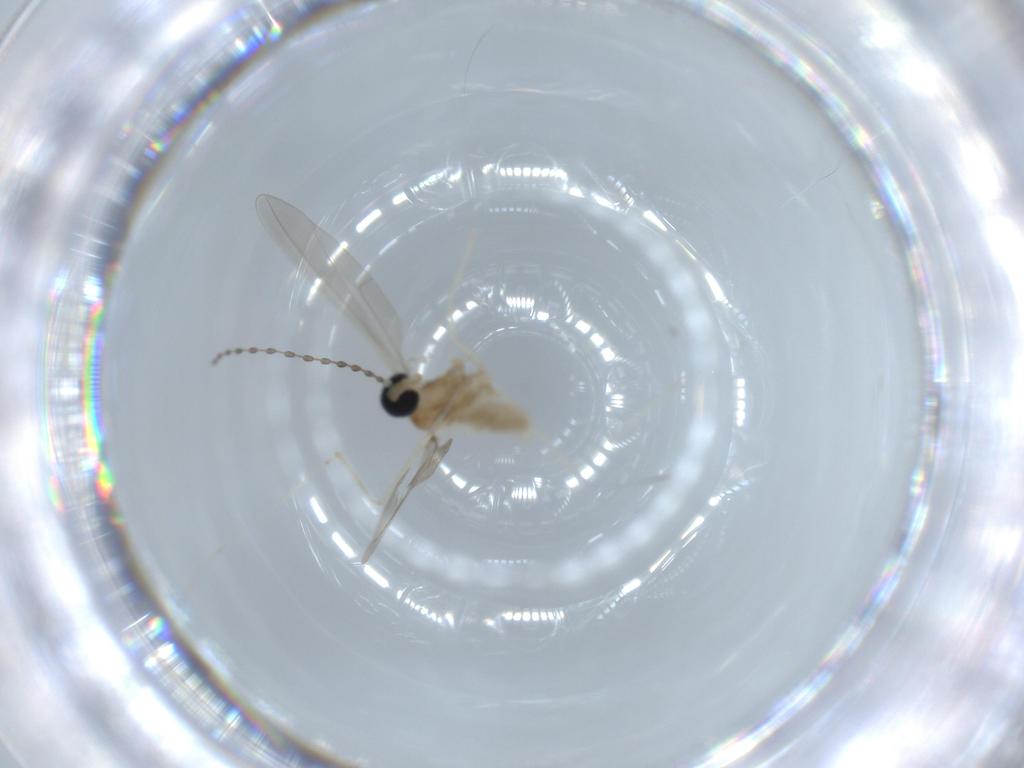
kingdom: Animalia
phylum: Arthropoda
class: Insecta
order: Diptera
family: Cecidomyiidae
